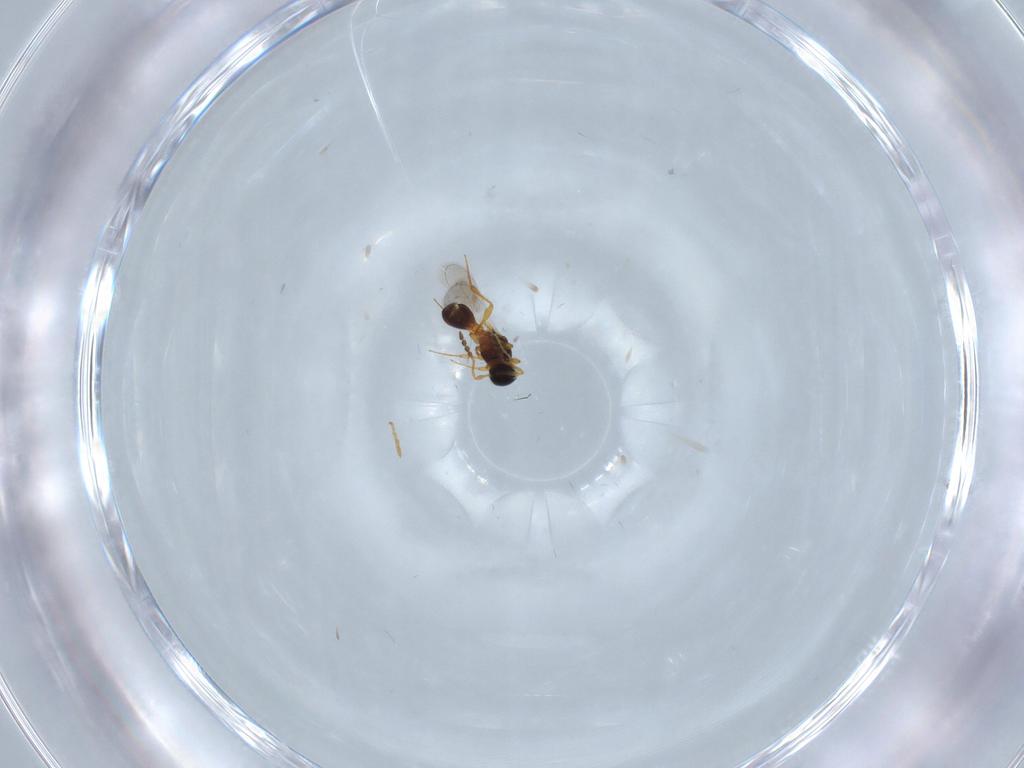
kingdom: Animalia
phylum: Arthropoda
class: Insecta
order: Hymenoptera
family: Platygastridae
